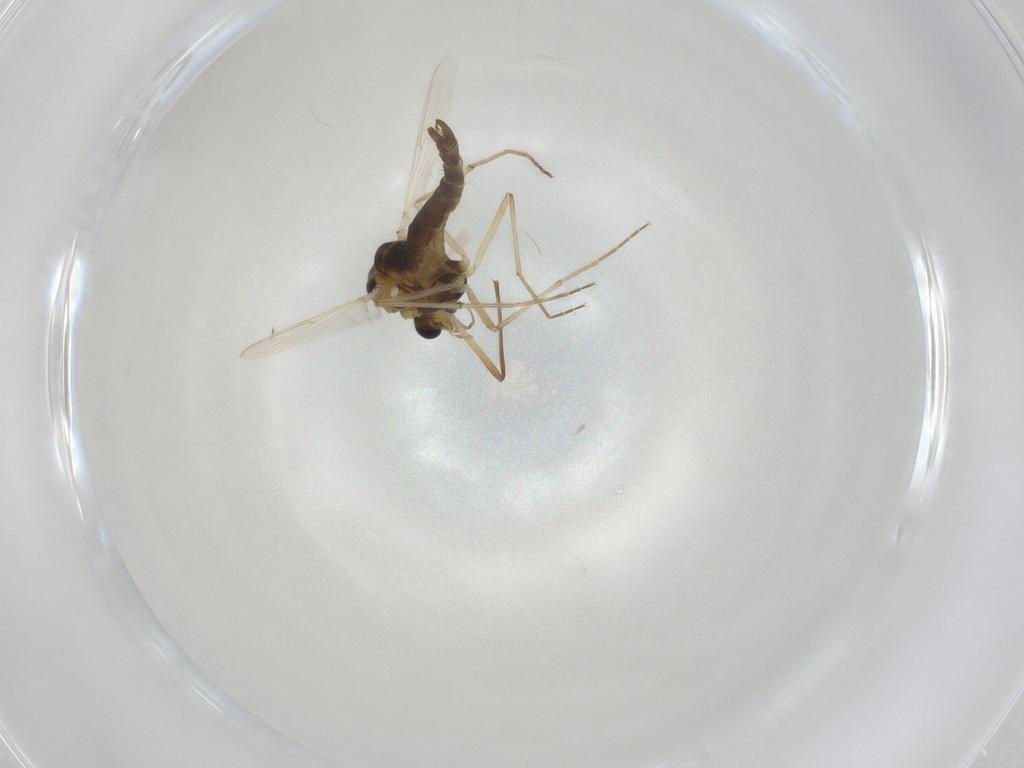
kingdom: Animalia
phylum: Arthropoda
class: Insecta
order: Diptera
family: Chironomidae
